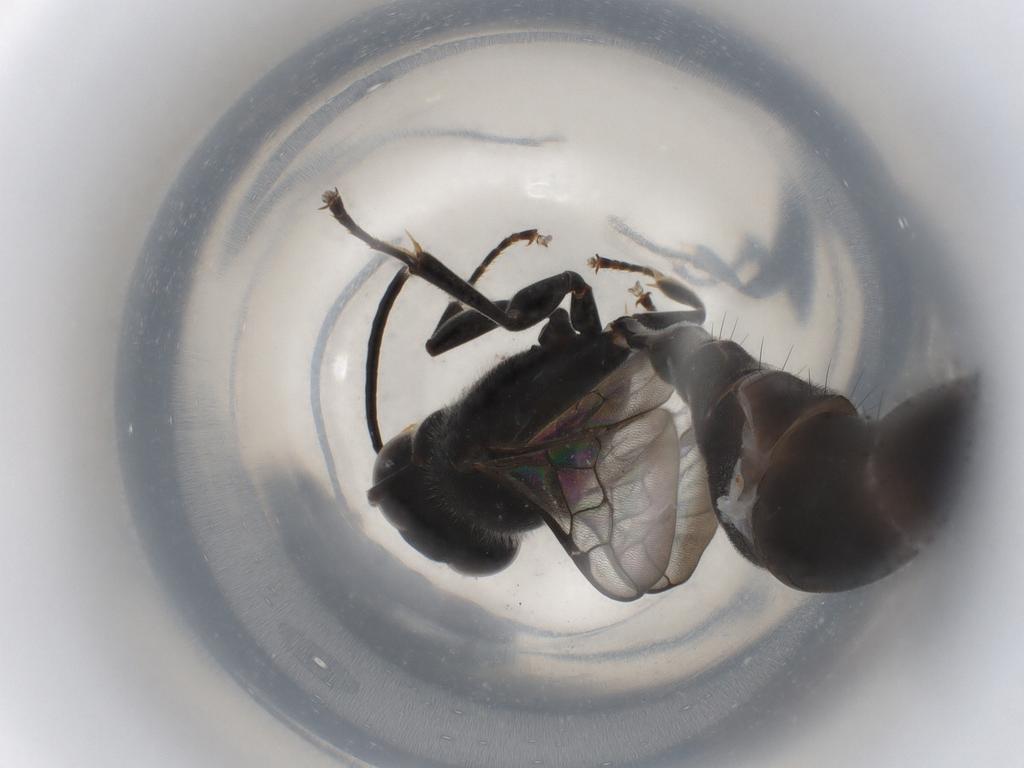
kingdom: Animalia
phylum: Arthropoda
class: Insecta
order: Hymenoptera
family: Crabronidae
